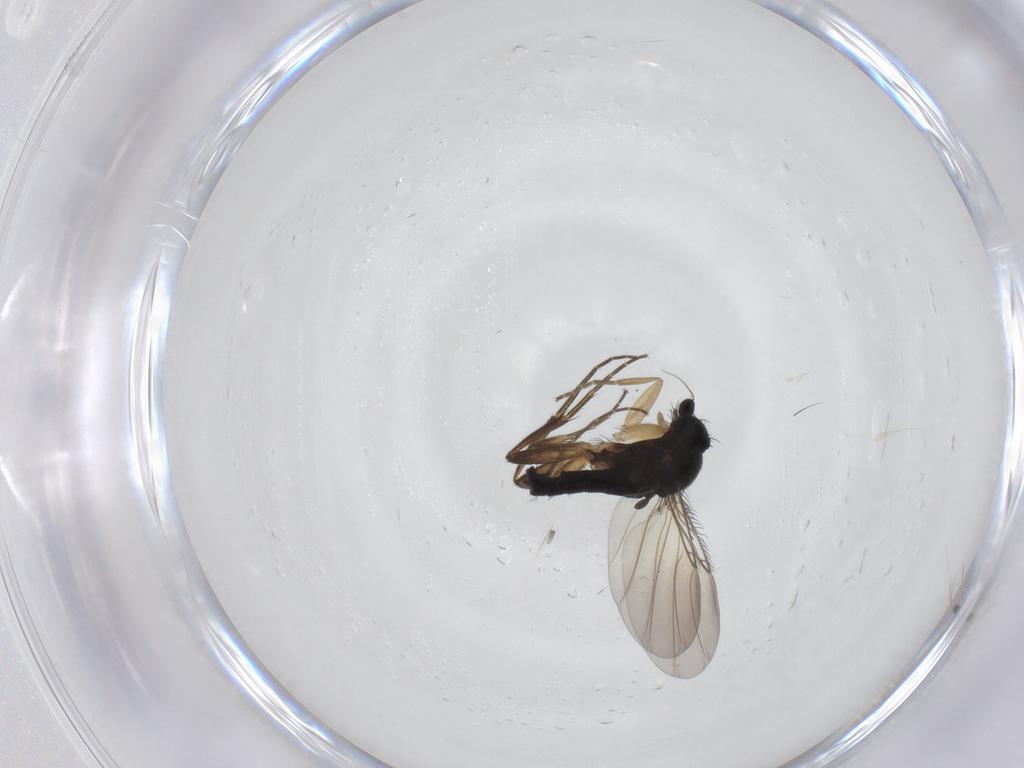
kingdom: Animalia
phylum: Arthropoda
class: Insecta
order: Diptera
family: Phoridae
